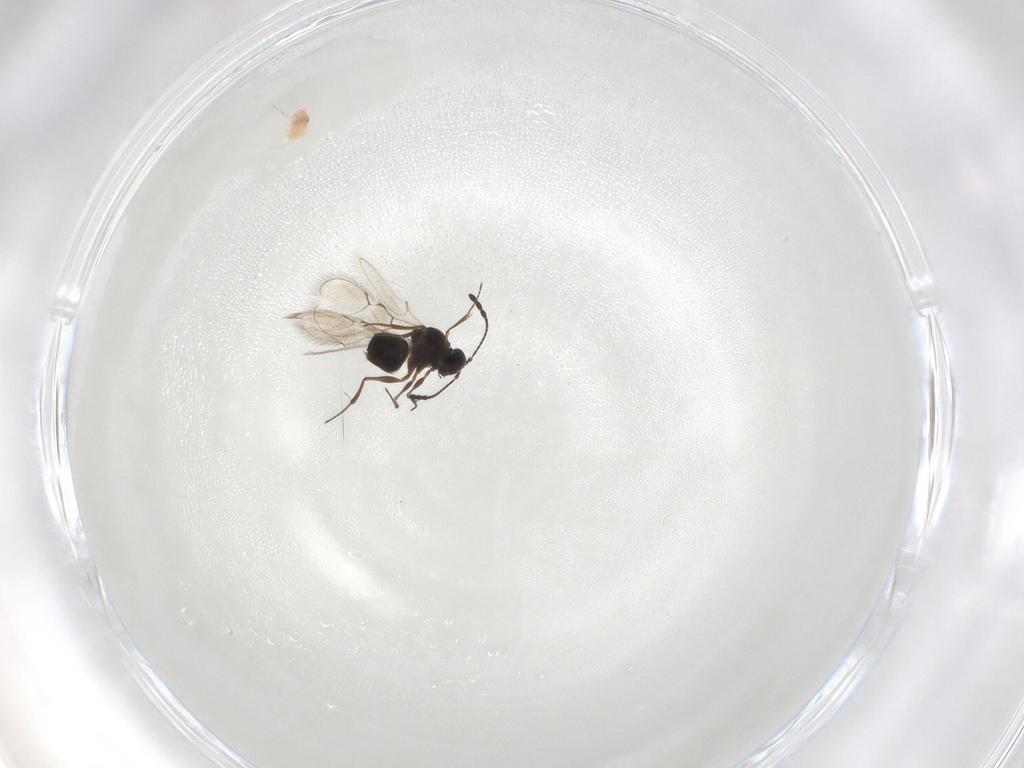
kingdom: Animalia
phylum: Arthropoda
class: Insecta
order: Hymenoptera
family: Figitidae
